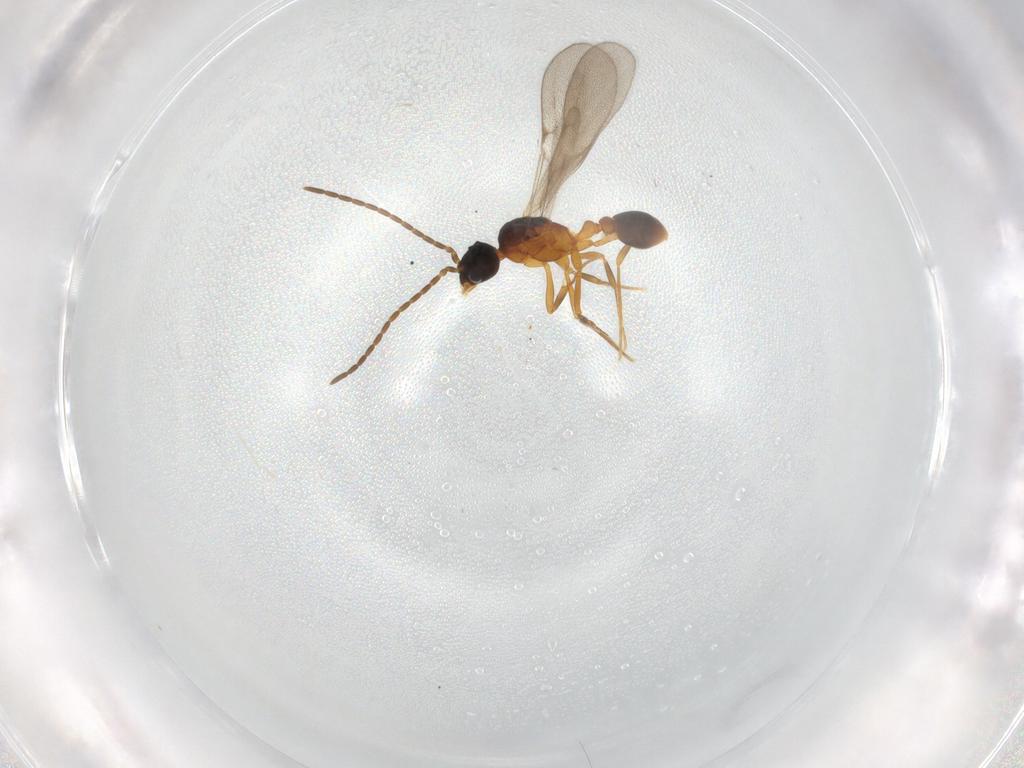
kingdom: Animalia
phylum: Arthropoda
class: Insecta
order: Hymenoptera
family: Formicidae
